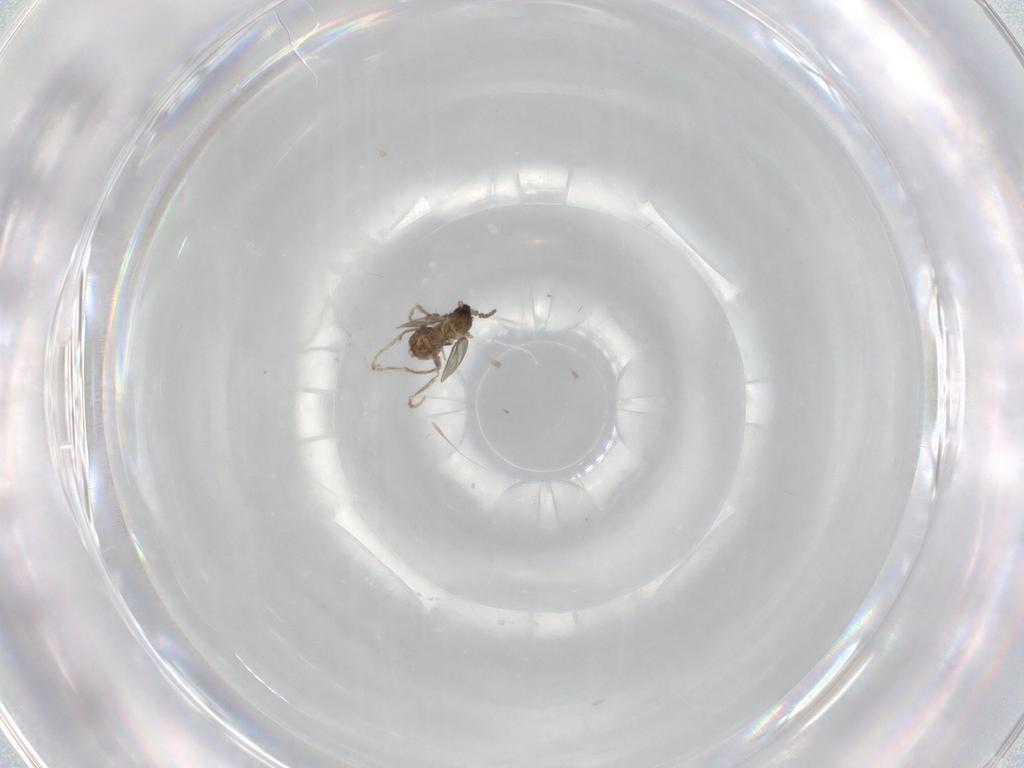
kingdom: Animalia
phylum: Arthropoda
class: Insecta
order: Diptera
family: Cecidomyiidae
